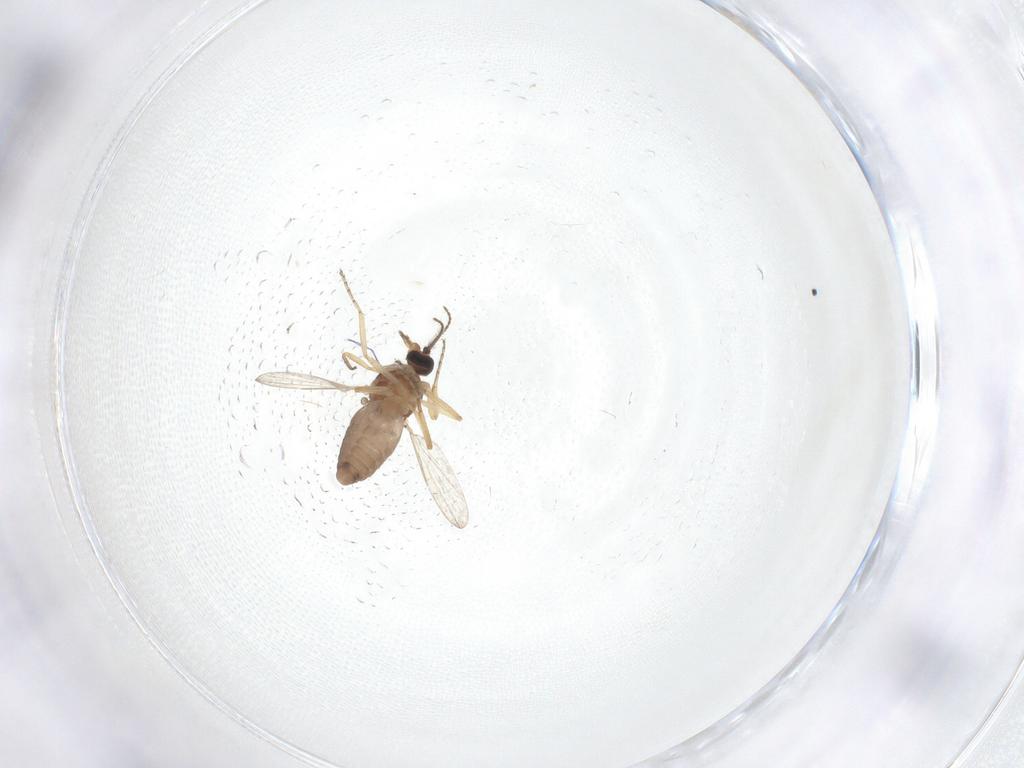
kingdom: Animalia
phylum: Arthropoda
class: Insecta
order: Diptera
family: Ceratopogonidae
